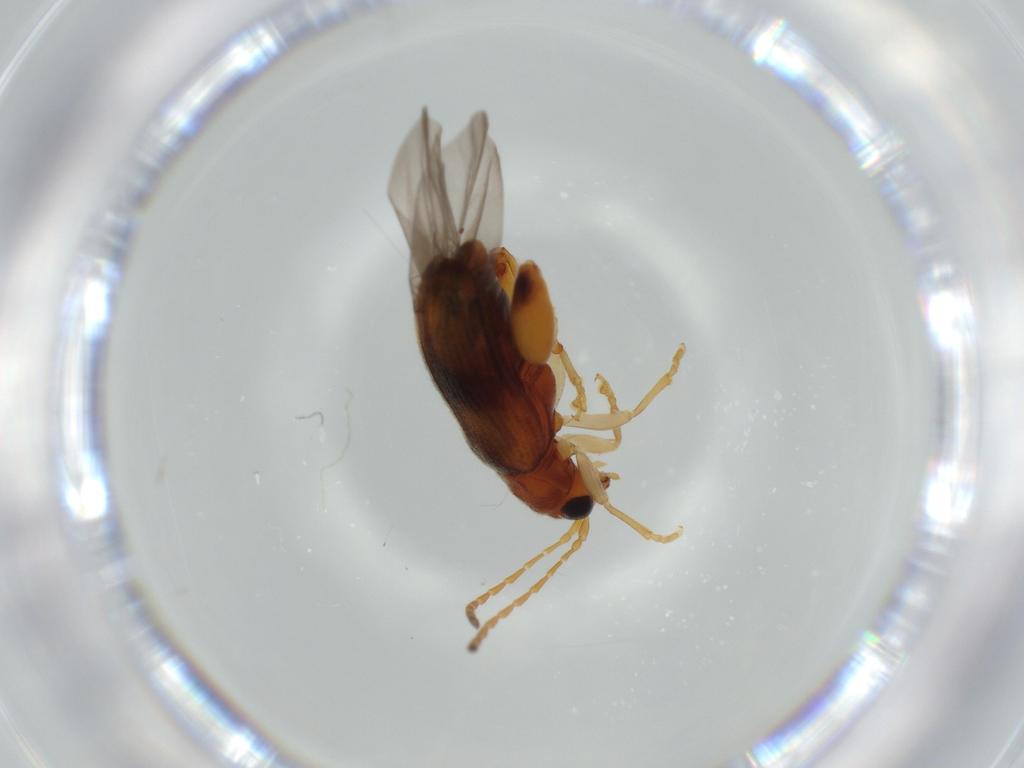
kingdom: Animalia
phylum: Arthropoda
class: Insecta
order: Coleoptera
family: Chrysomelidae
